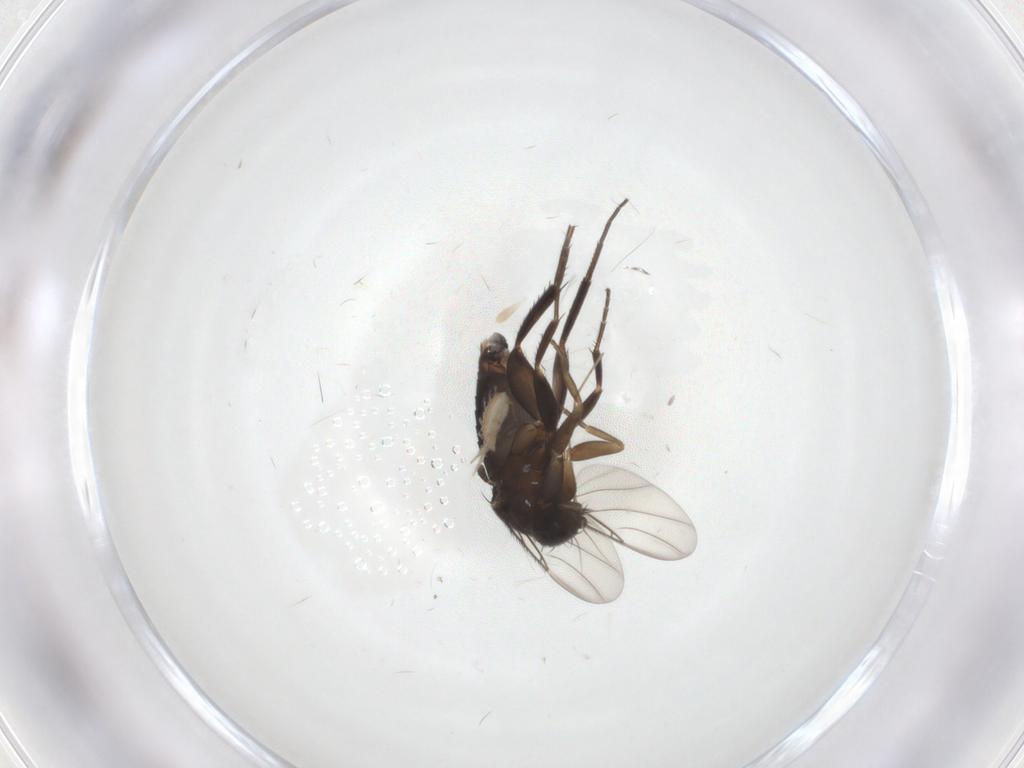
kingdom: Animalia
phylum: Arthropoda
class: Insecta
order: Diptera
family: Phoridae
